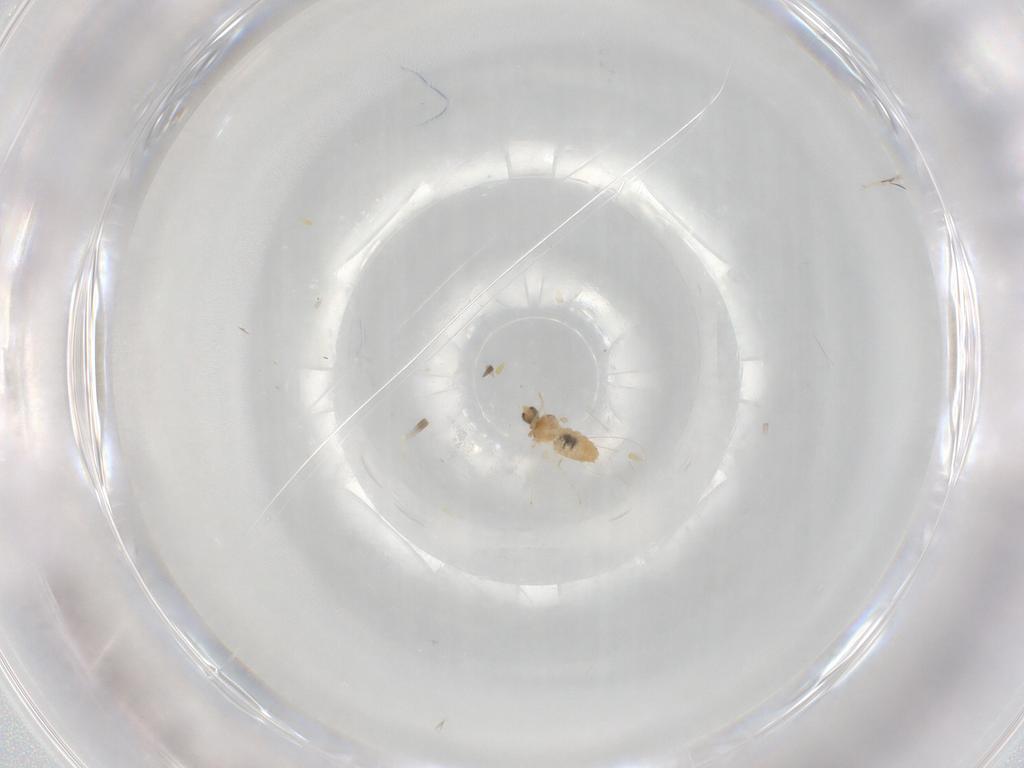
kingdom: Animalia
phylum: Arthropoda
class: Insecta
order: Diptera
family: Cecidomyiidae
